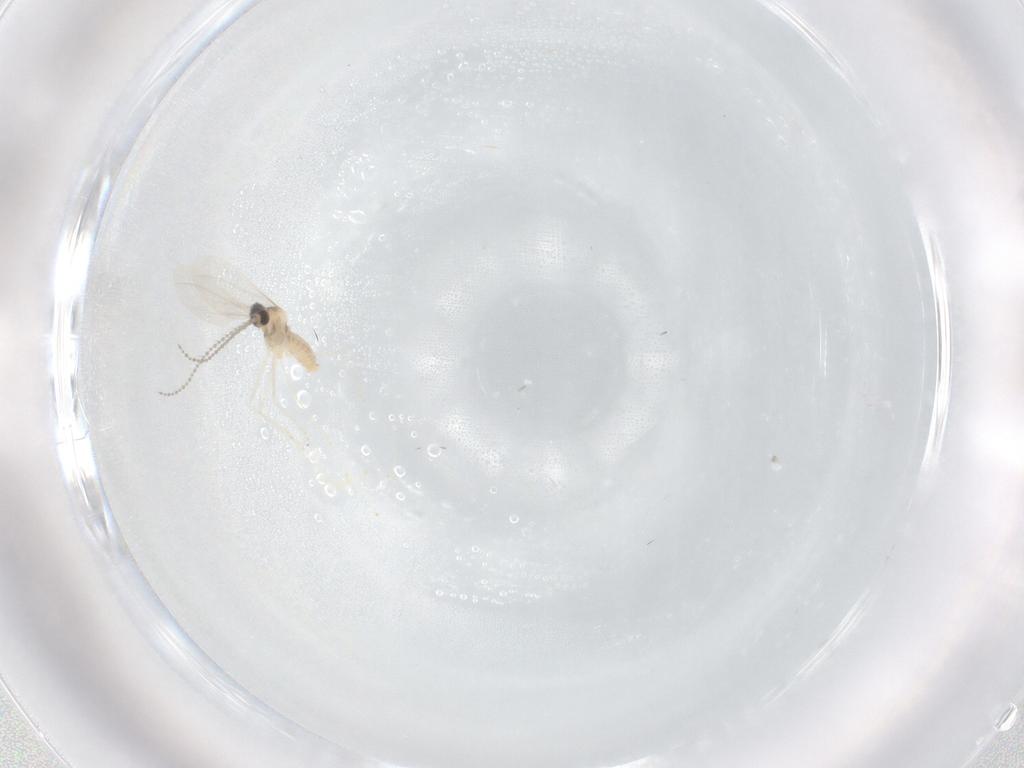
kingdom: Animalia
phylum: Arthropoda
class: Insecta
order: Diptera
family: Cecidomyiidae
